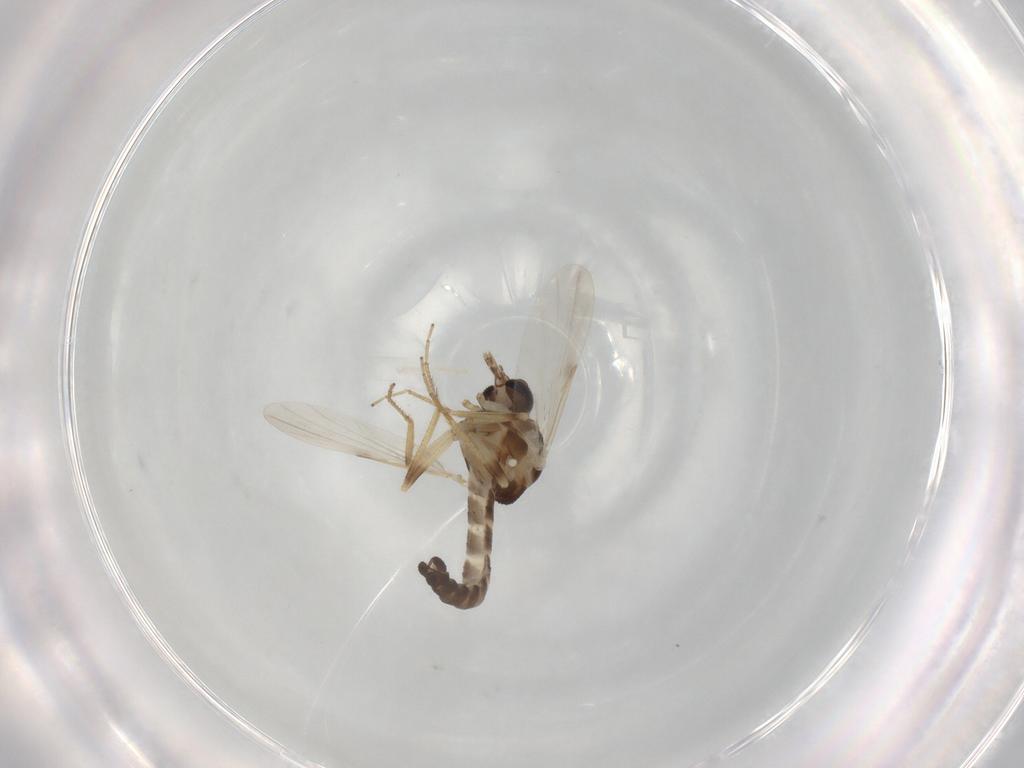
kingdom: Animalia
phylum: Arthropoda
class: Insecta
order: Diptera
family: Ceratopogonidae
